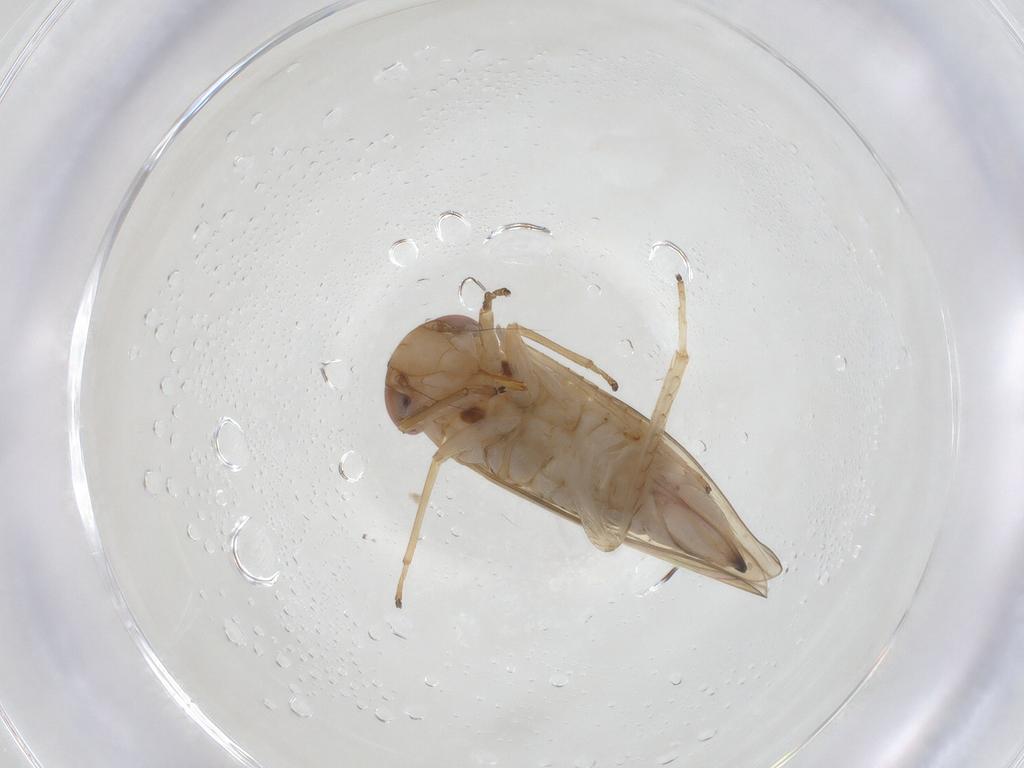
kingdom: Animalia
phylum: Arthropoda
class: Insecta
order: Hemiptera
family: Cicadellidae
